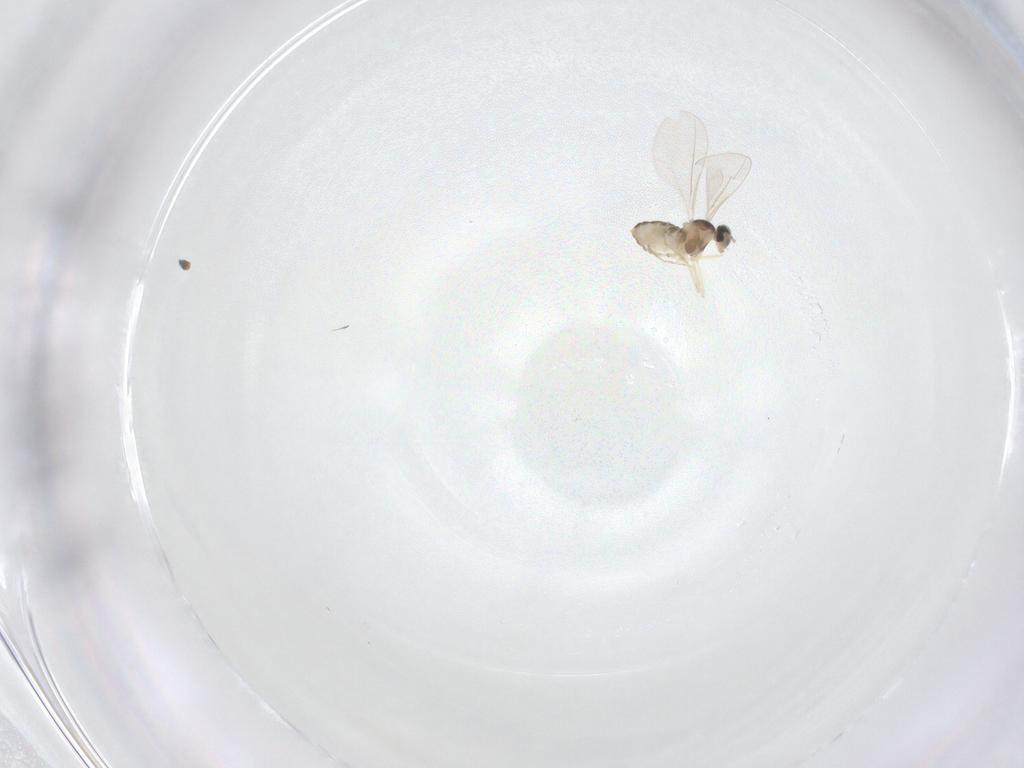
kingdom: Animalia
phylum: Arthropoda
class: Insecta
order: Diptera
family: Cecidomyiidae
